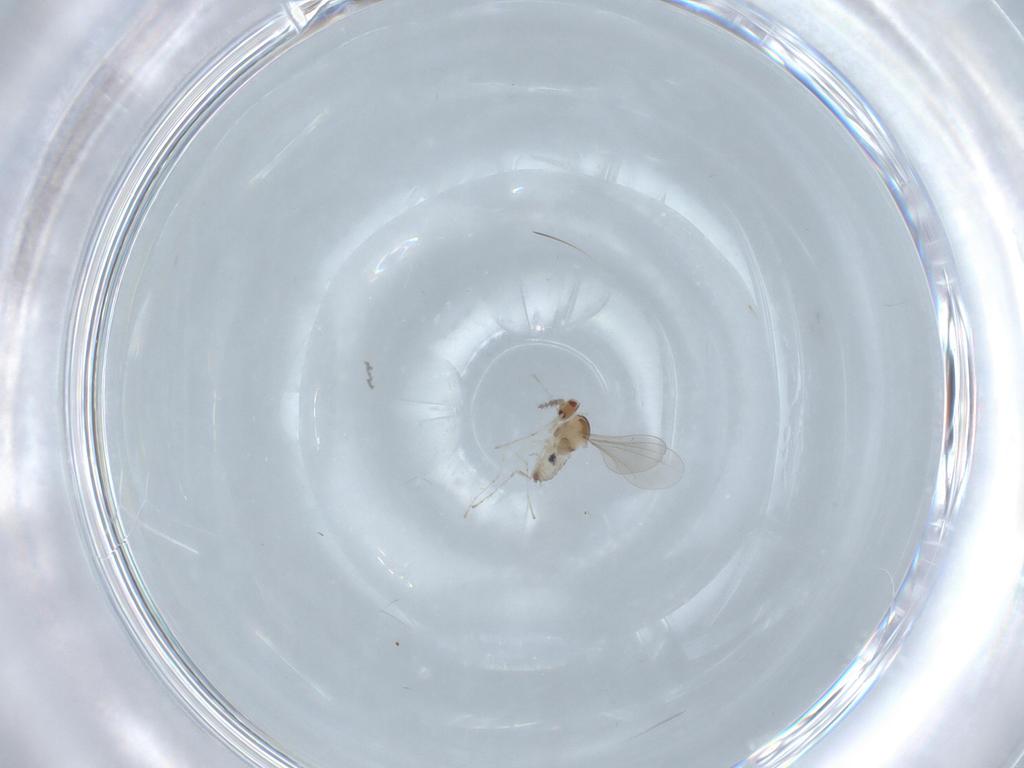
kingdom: Animalia
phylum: Arthropoda
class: Insecta
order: Diptera
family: Chironomidae
